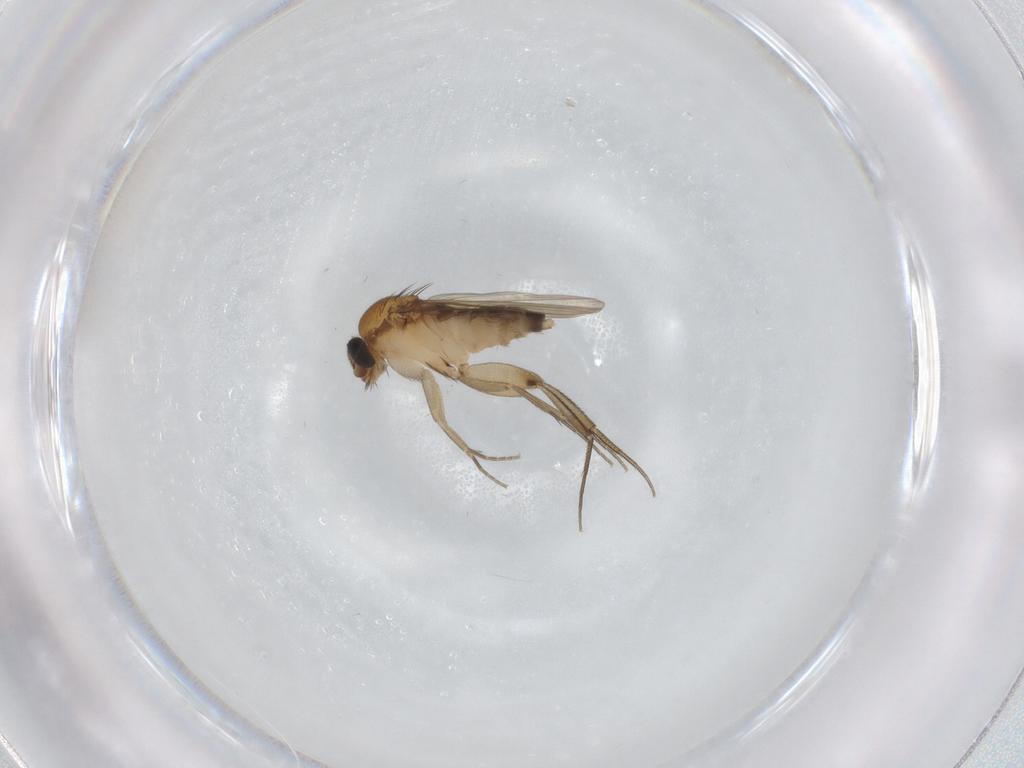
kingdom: Animalia
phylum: Arthropoda
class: Insecta
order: Diptera
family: Phoridae
